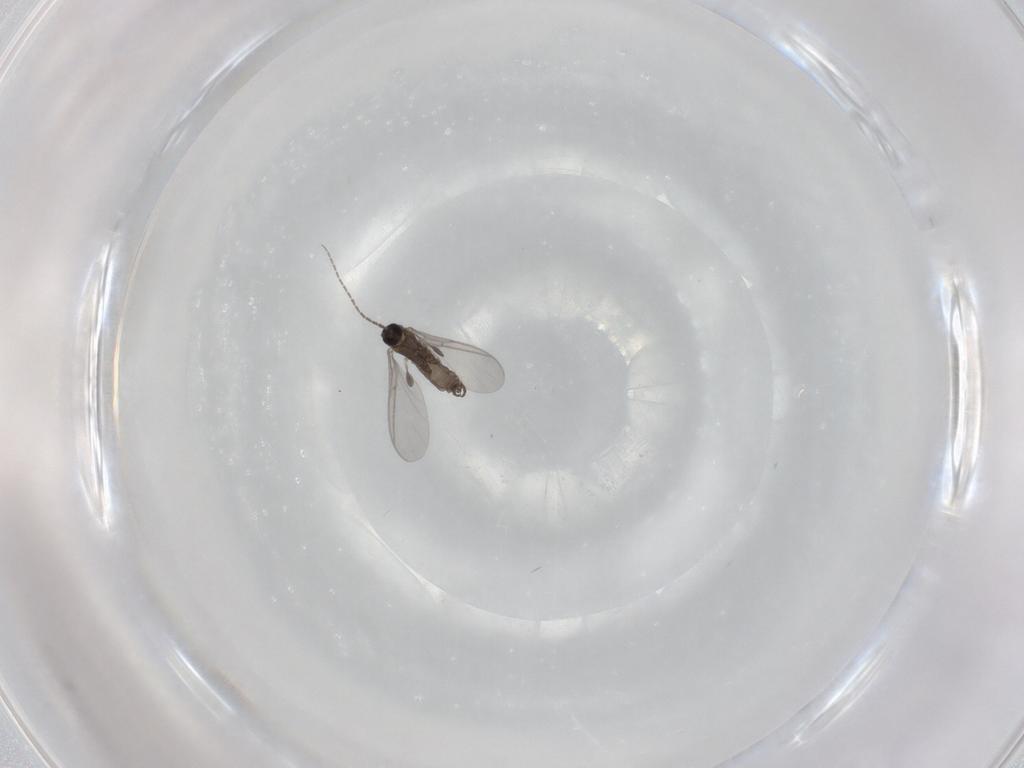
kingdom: Animalia
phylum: Arthropoda
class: Insecta
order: Diptera
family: Sciaridae
